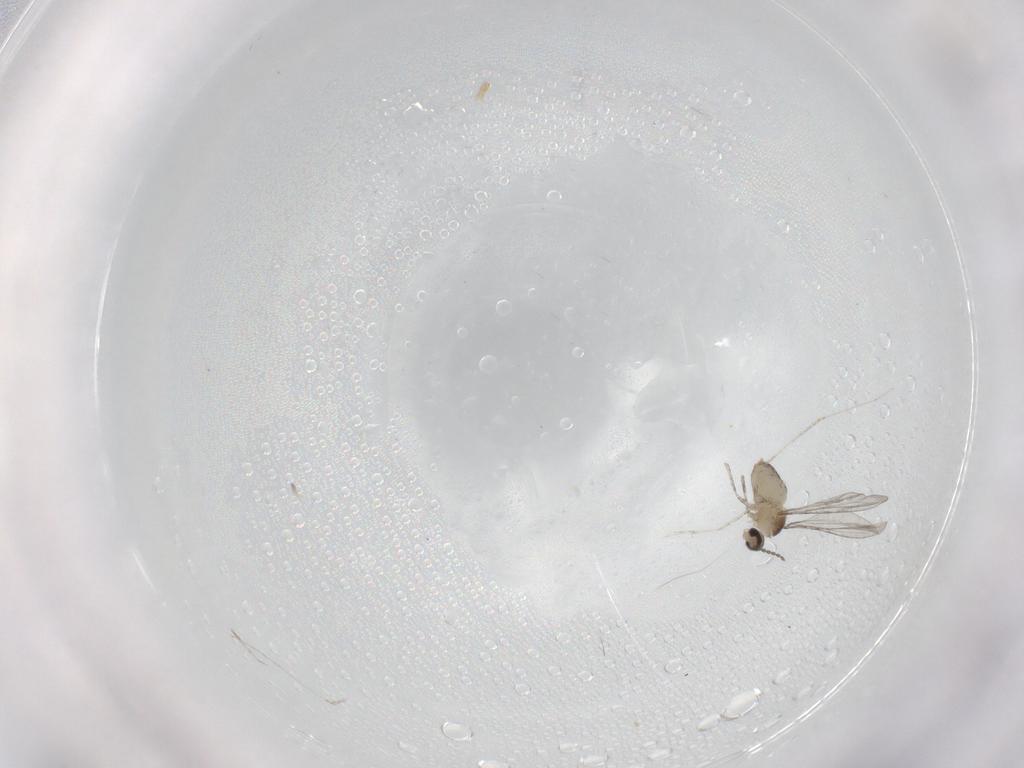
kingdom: Animalia
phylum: Arthropoda
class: Insecta
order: Diptera
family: Cecidomyiidae
